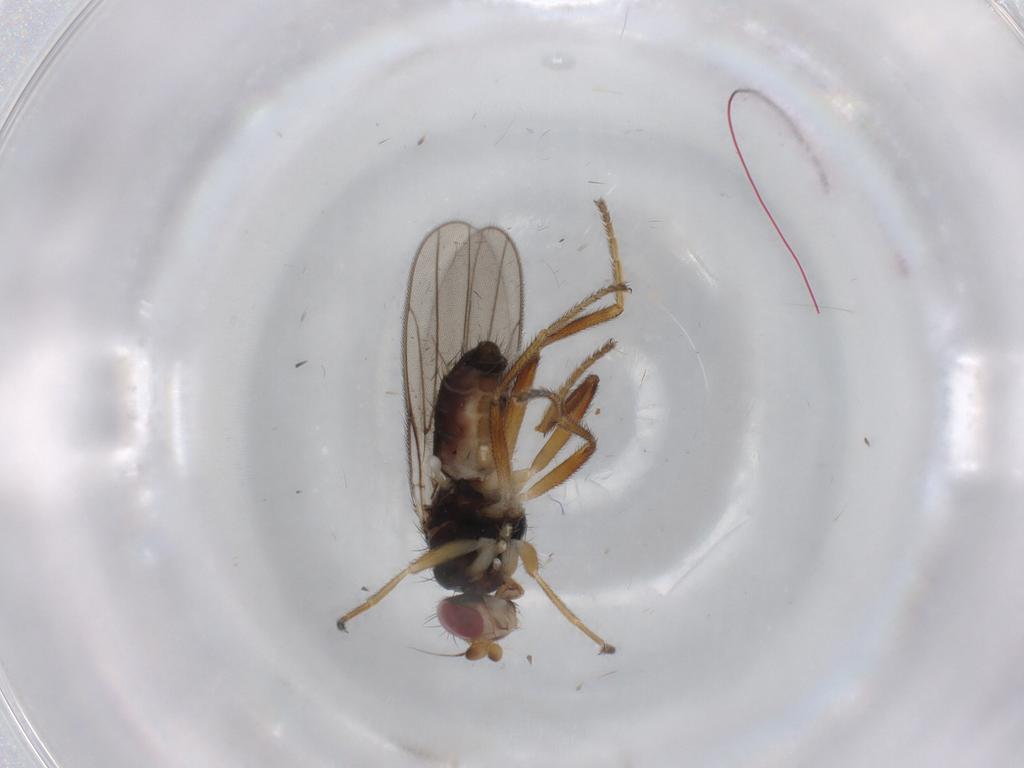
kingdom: Animalia
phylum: Arthropoda
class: Insecta
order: Diptera
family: Chloropidae
